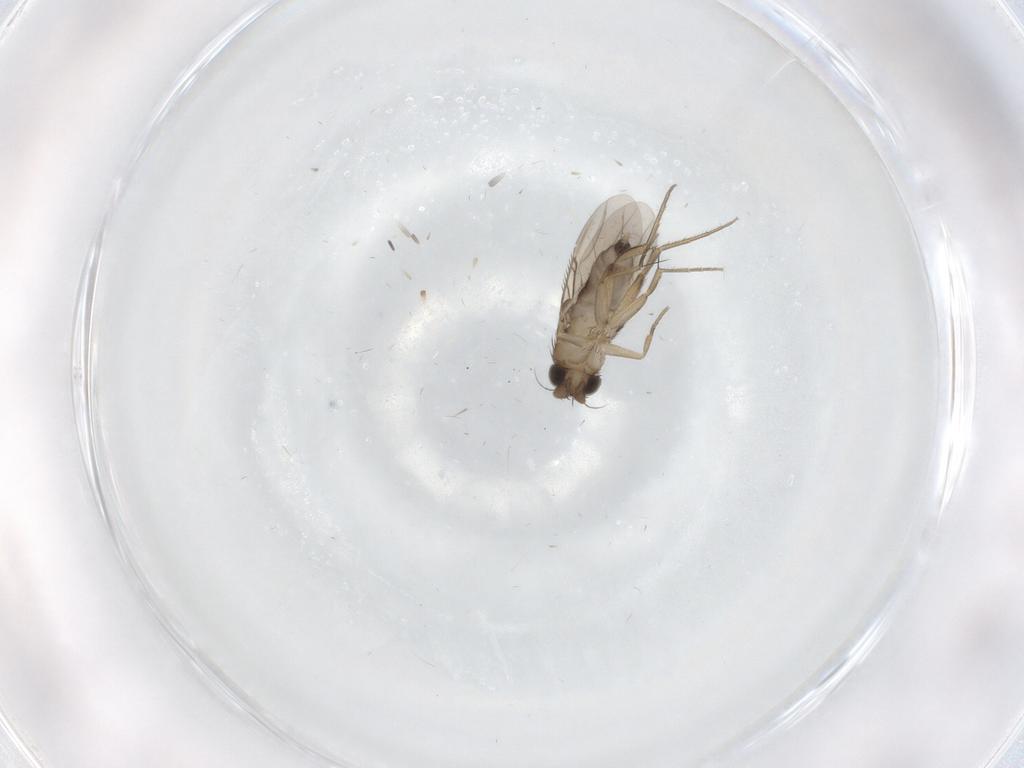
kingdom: Animalia
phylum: Arthropoda
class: Insecta
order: Diptera
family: Phoridae
